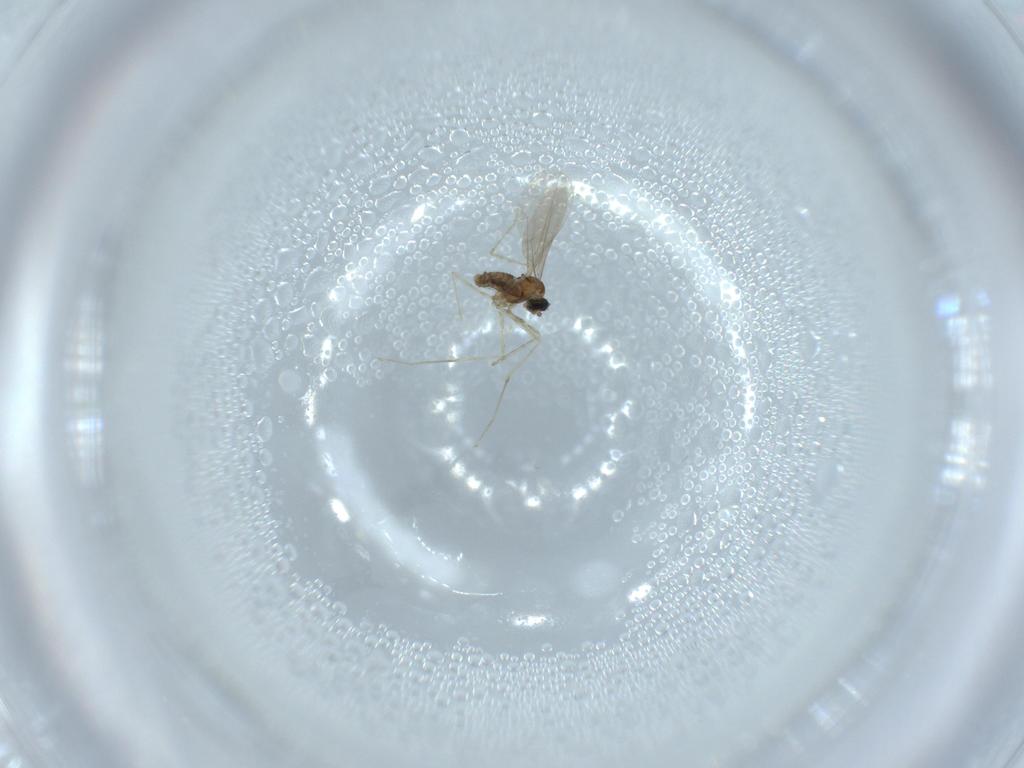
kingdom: Animalia
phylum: Arthropoda
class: Insecta
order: Diptera
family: Cecidomyiidae
